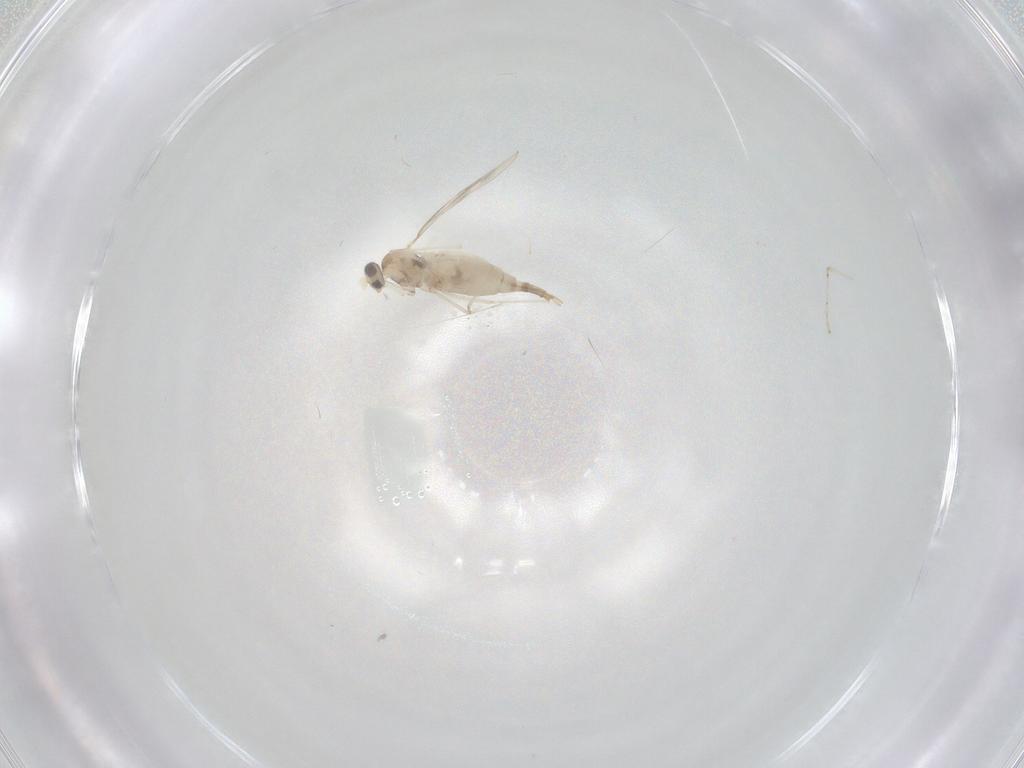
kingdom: Animalia
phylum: Arthropoda
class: Insecta
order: Diptera
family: Cecidomyiidae
